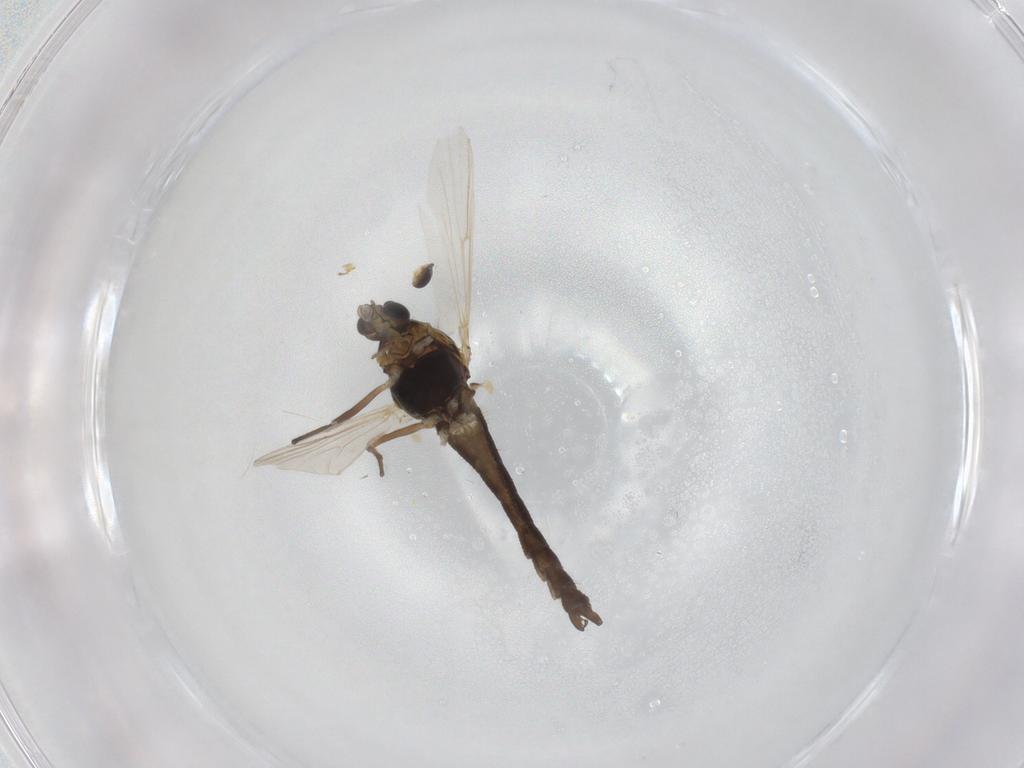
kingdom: Animalia
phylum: Arthropoda
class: Insecta
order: Diptera
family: Chironomidae
